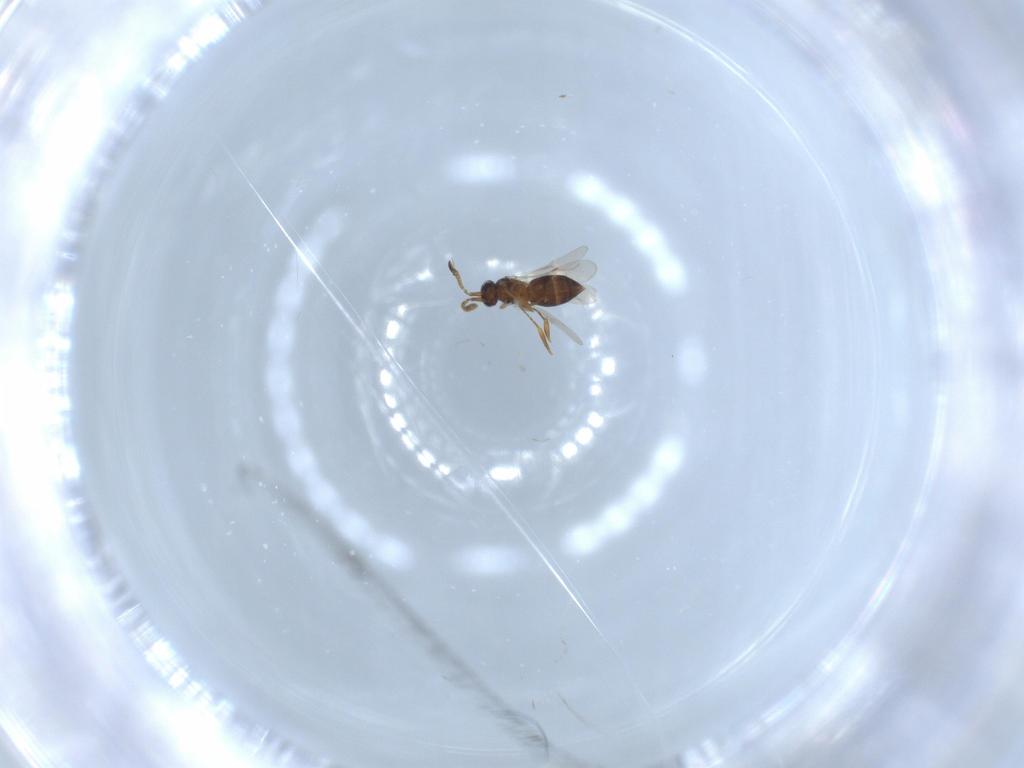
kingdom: Animalia
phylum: Arthropoda
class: Insecta
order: Hymenoptera
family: Ceraphronidae
